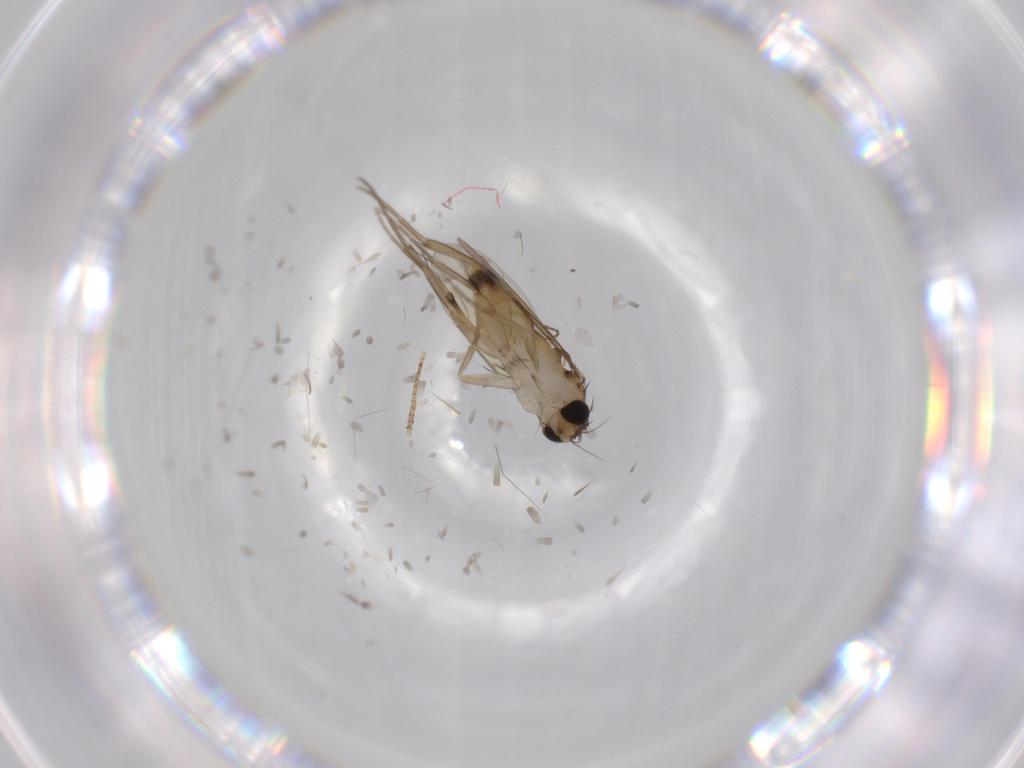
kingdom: Animalia
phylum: Arthropoda
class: Insecta
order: Diptera
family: Phoridae
